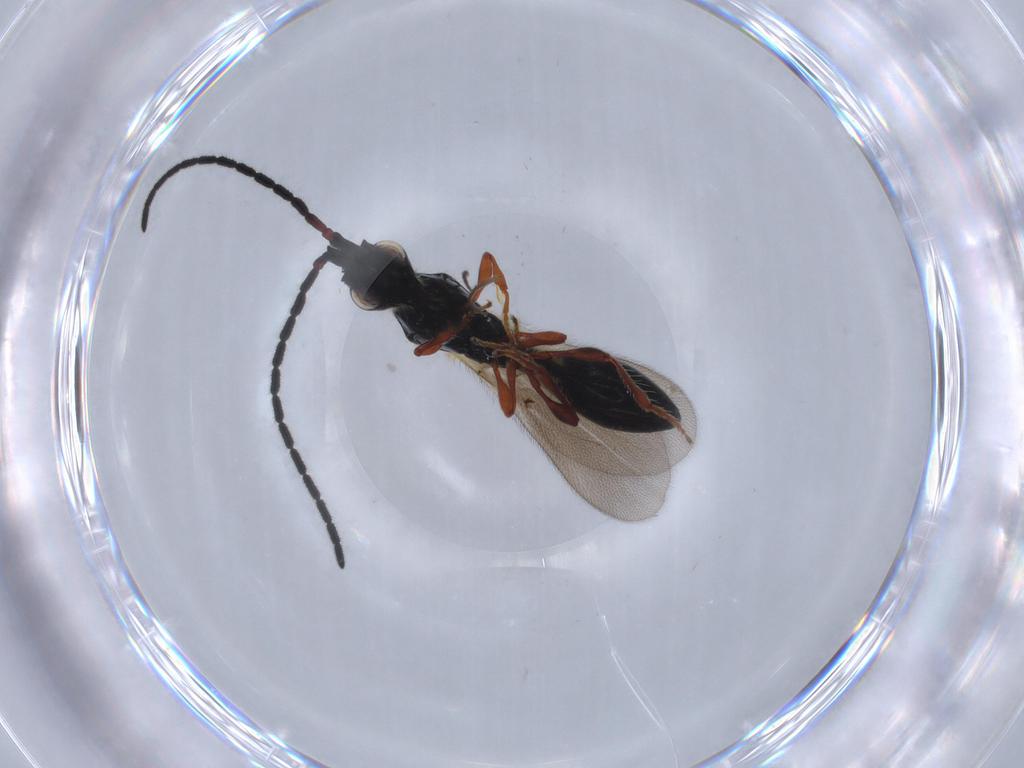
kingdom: Animalia
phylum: Arthropoda
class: Insecta
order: Hymenoptera
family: Diapriidae
